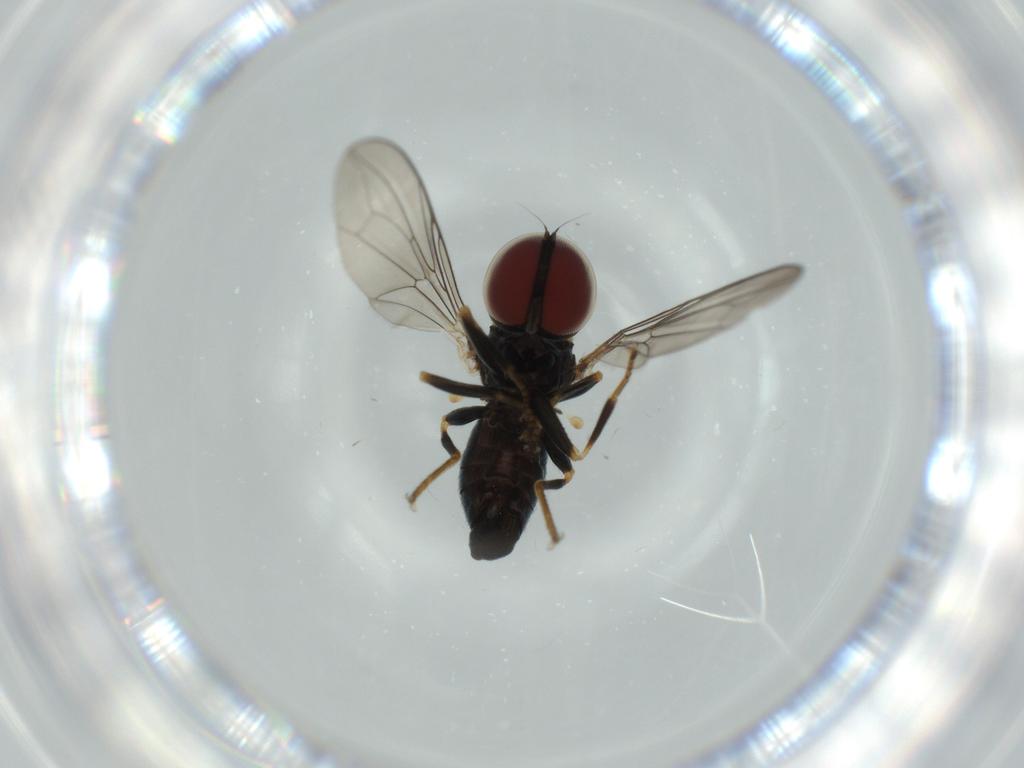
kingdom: Animalia
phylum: Arthropoda
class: Insecta
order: Diptera
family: Pipunculidae
